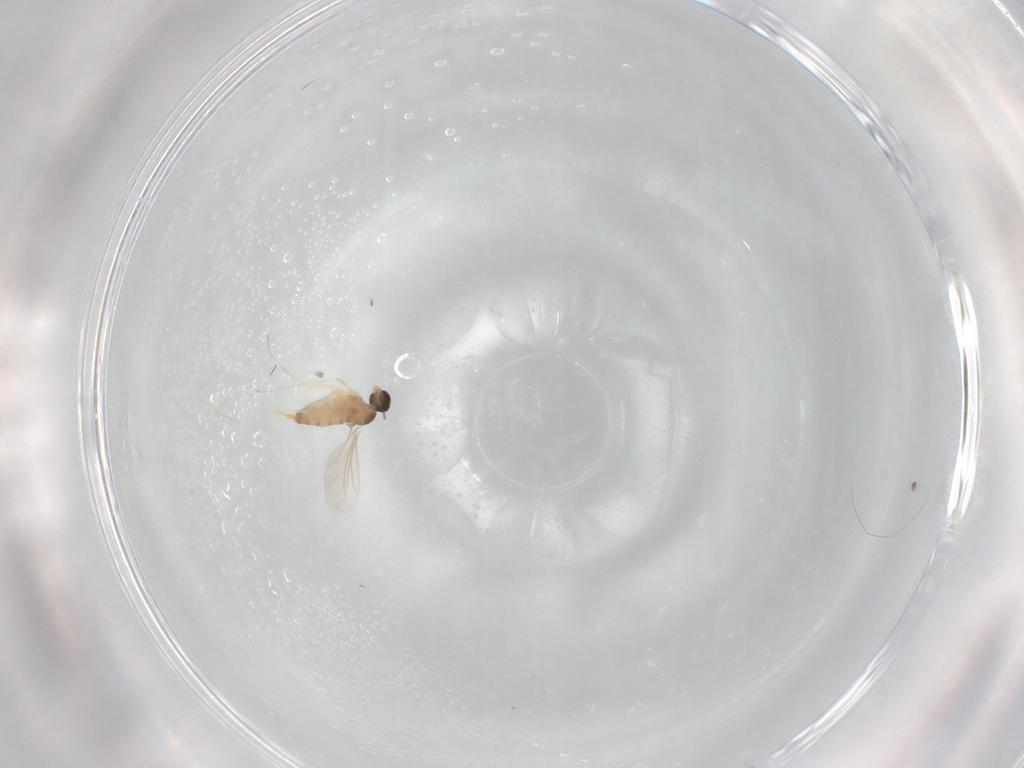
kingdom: Animalia
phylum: Arthropoda
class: Insecta
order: Diptera
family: Cecidomyiidae
